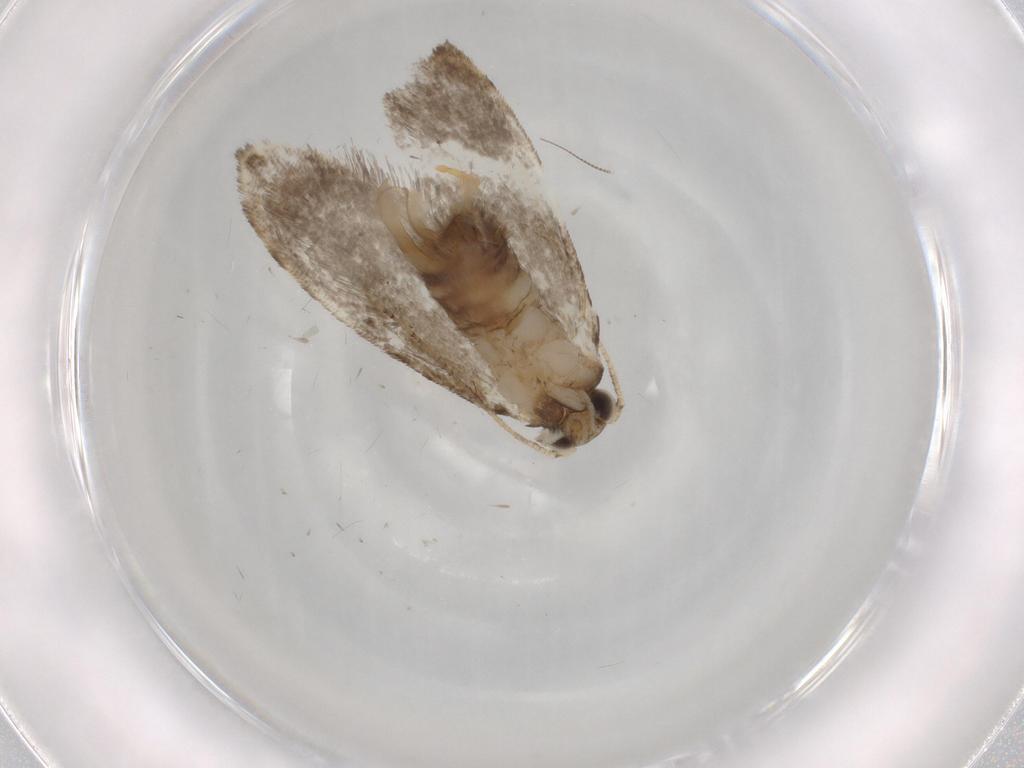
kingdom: Animalia
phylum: Arthropoda
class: Insecta
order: Lepidoptera
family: Tineidae
